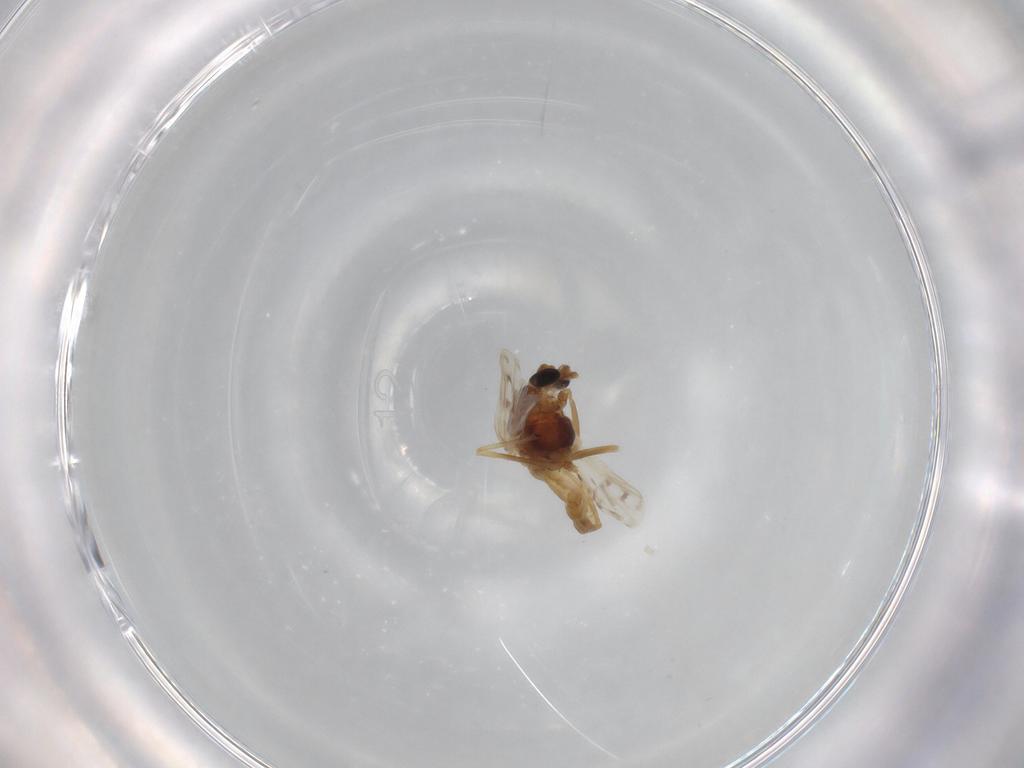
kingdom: Animalia
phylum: Arthropoda
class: Insecta
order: Diptera
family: Chironomidae
